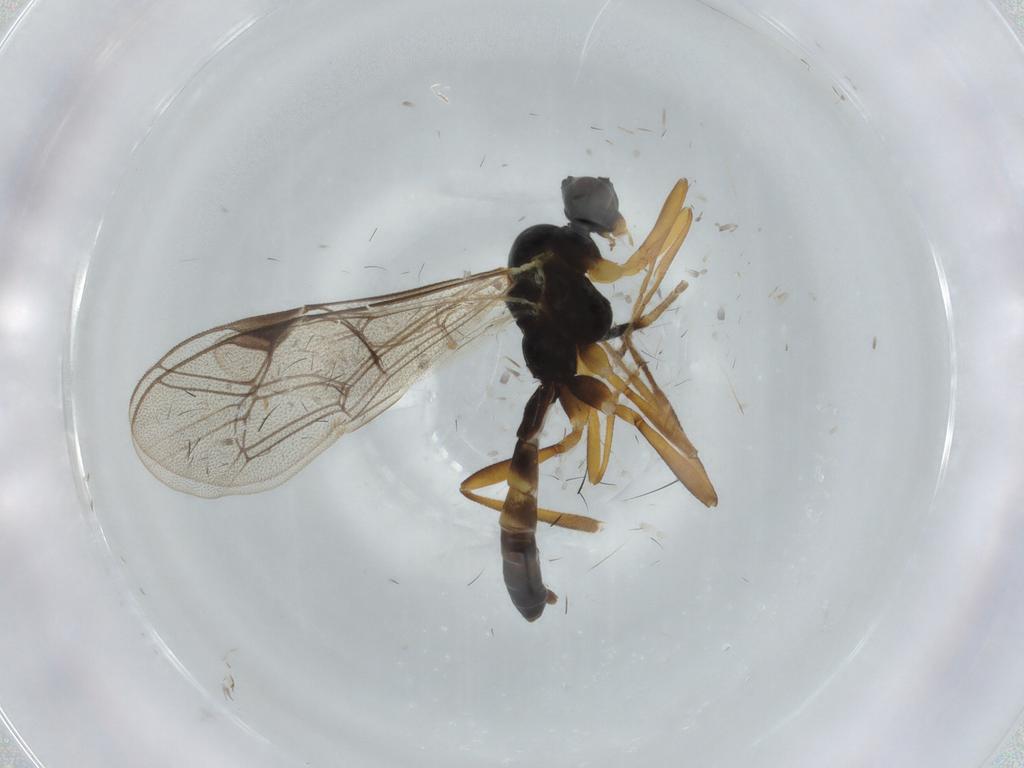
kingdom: Animalia
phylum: Arthropoda
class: Insecta
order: Hymenoptera
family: Ichneumonidae
